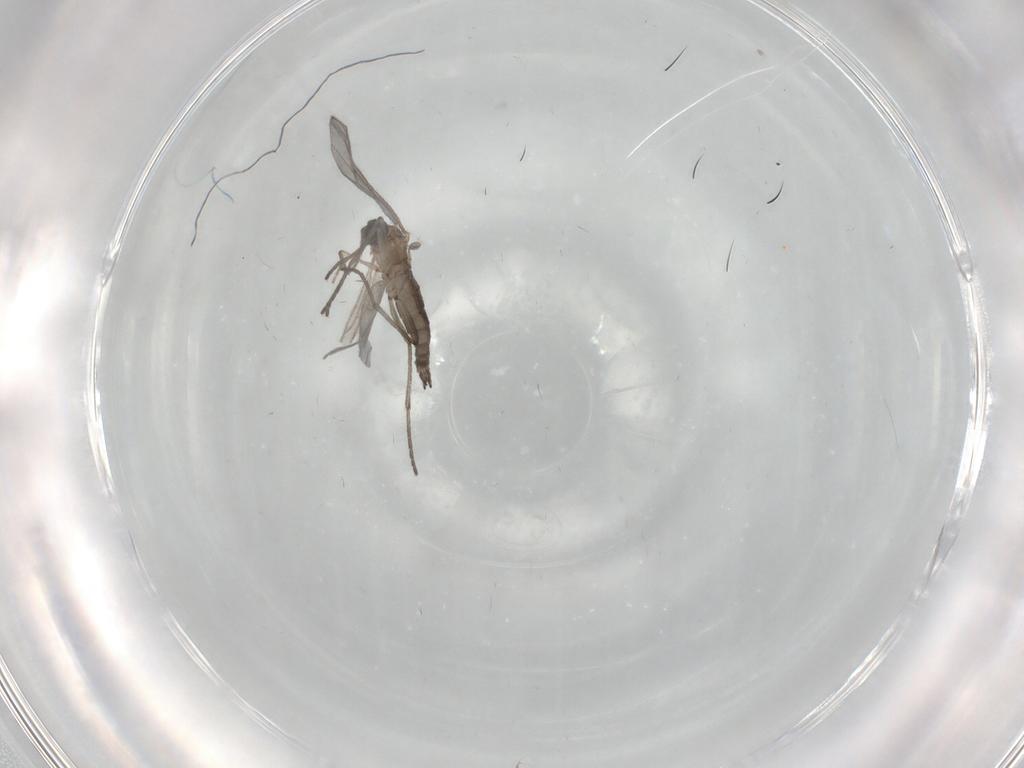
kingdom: Animalia
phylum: Arthropoda
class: Insecta
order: Diptera
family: Sciaridae
